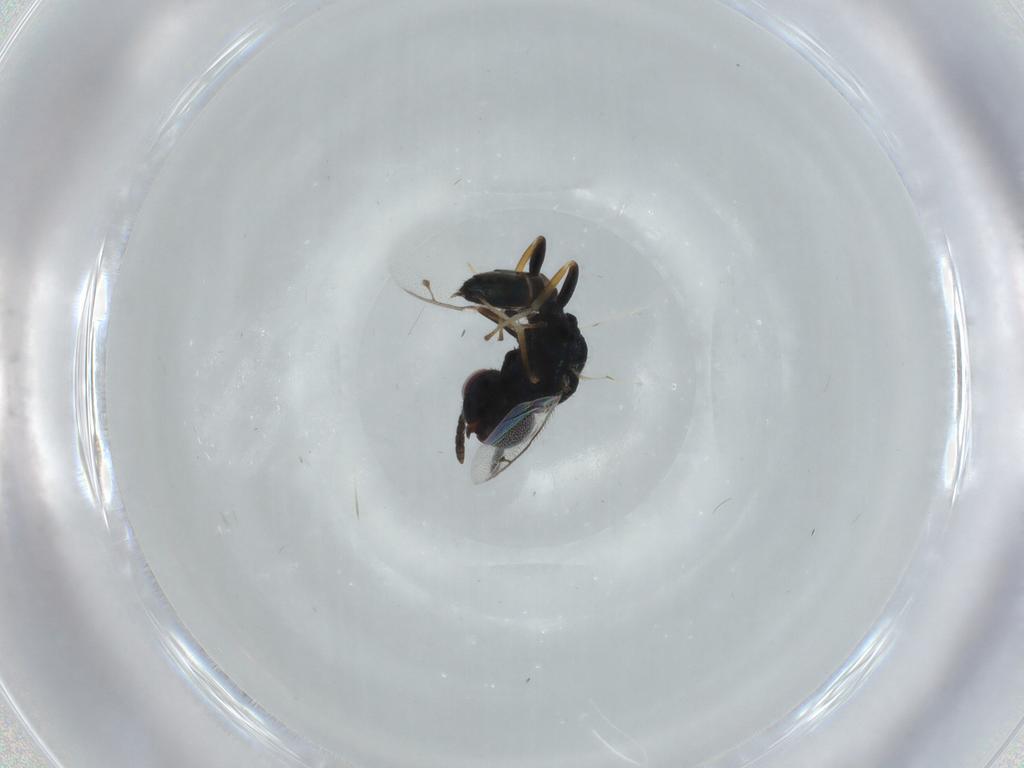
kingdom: Animalia
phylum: Arthropoda
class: Insecta
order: Hymenoptera
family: Pteromalidae
